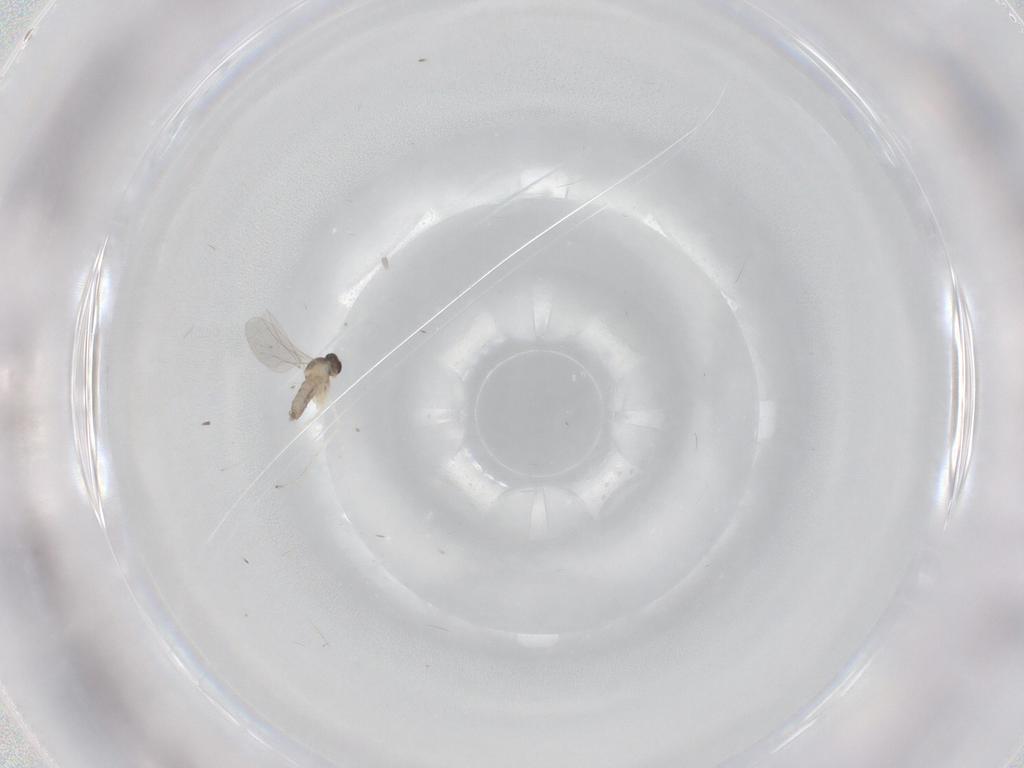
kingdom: Animalia
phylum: Arthropoda
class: Insecta
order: Diptera
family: Cecidomyiidae
